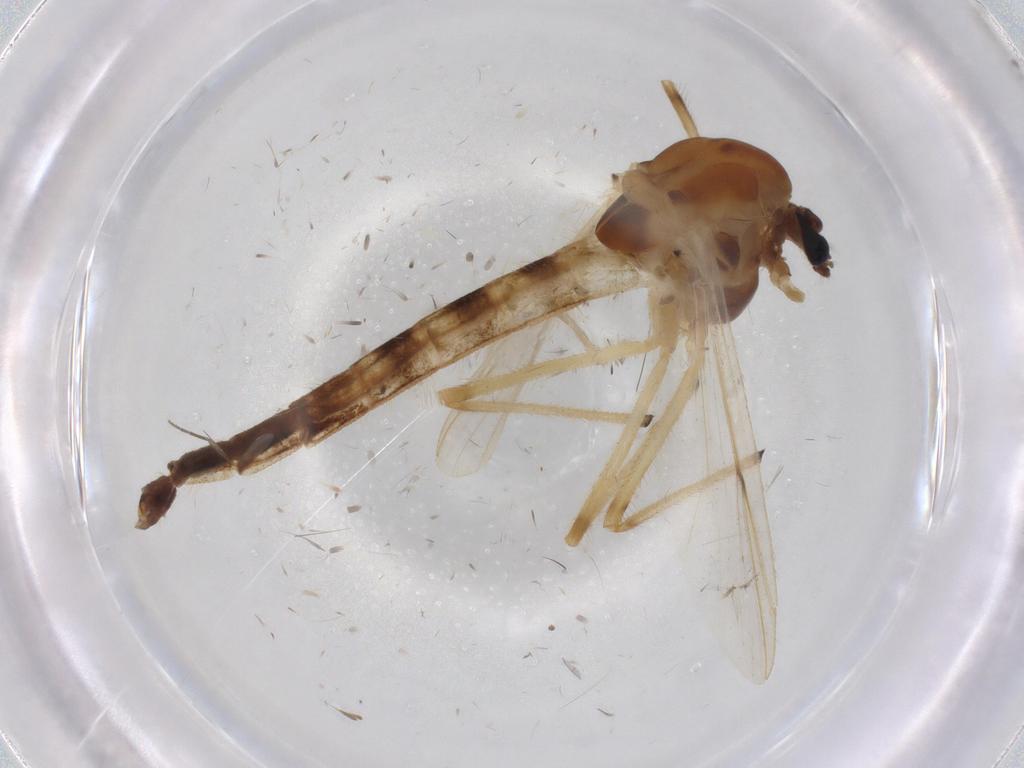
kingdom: Animalia
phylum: Arthropoda
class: Insecta
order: Diptera
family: Chironomidae
